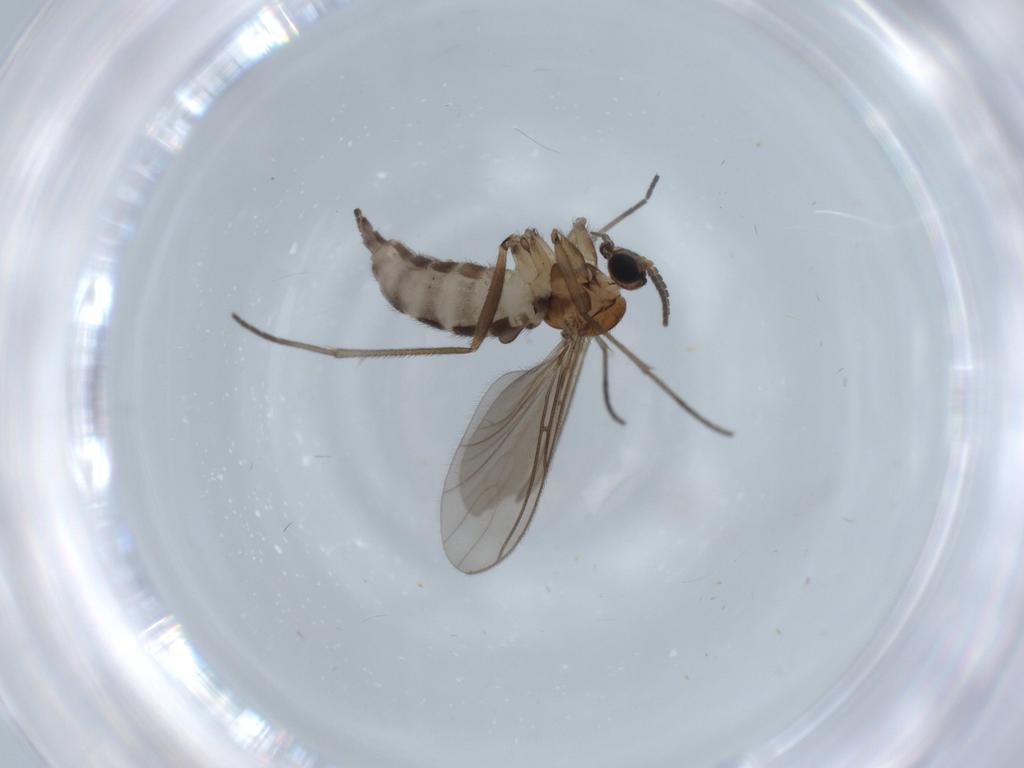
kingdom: Animalia
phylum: Arthropoda
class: Insecta
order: Diptera
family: Sciaridae
